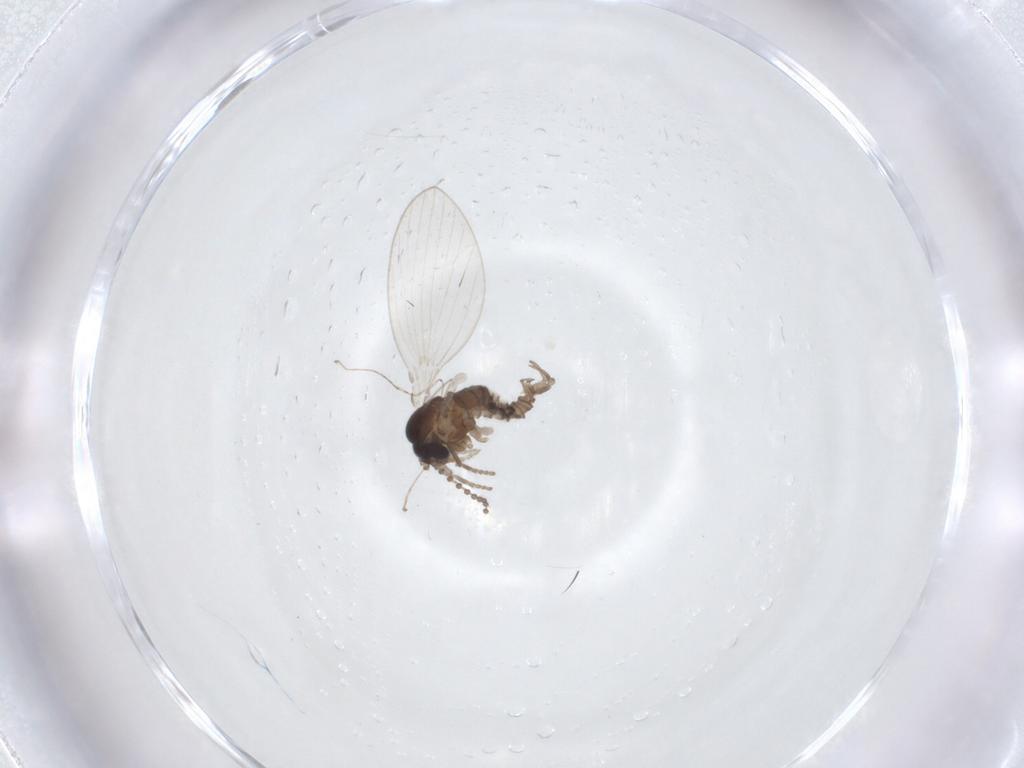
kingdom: Animalia
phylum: Arthropoda
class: Insecta
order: Diptera
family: Psychodidae
